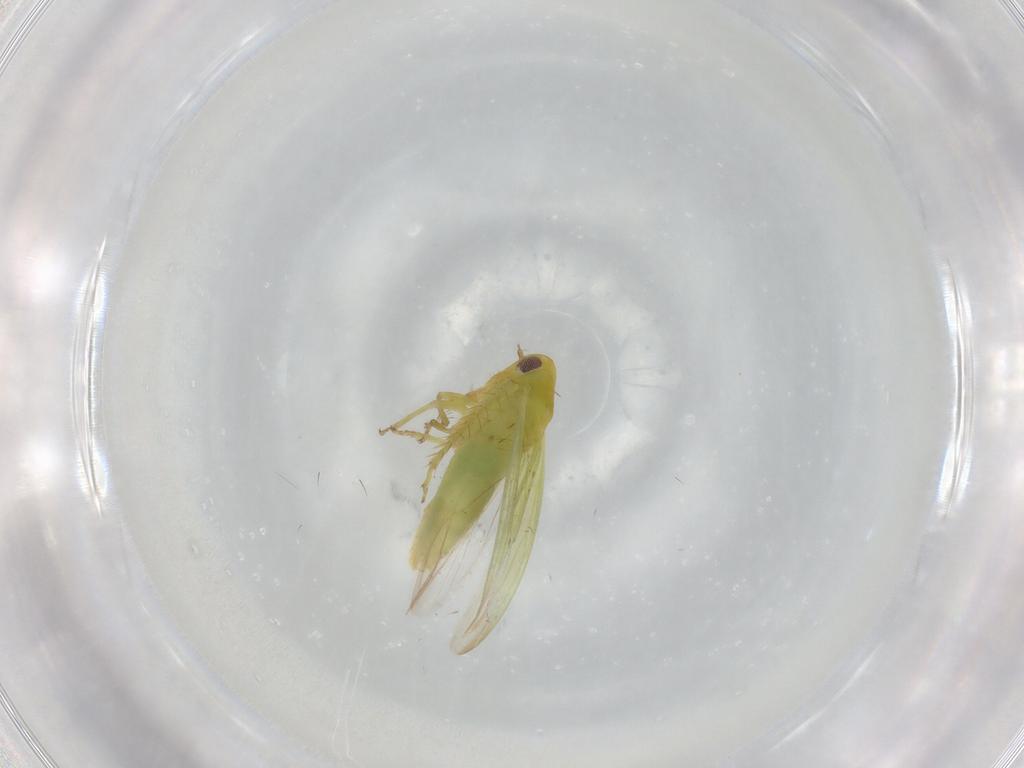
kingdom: Animalia
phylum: Arthropoda
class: Insecta
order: Hemiptera
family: Cicadellidae
